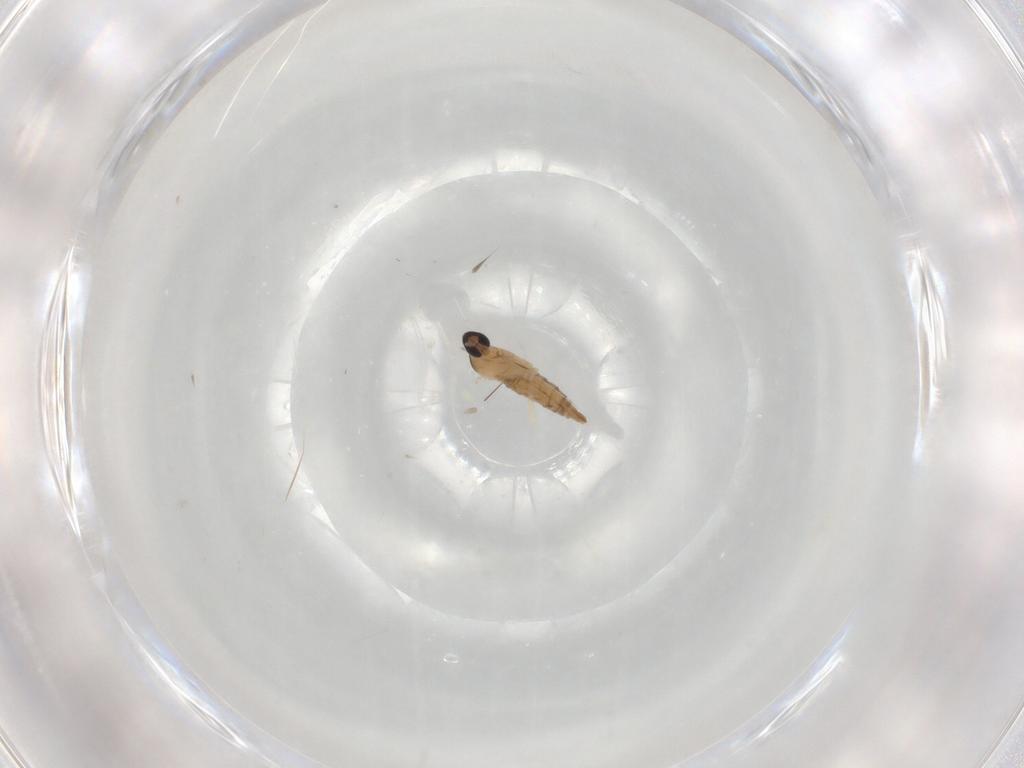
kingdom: Animalia
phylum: Arthropoda
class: Insecta
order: Diptera
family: Cecidomyiidae
